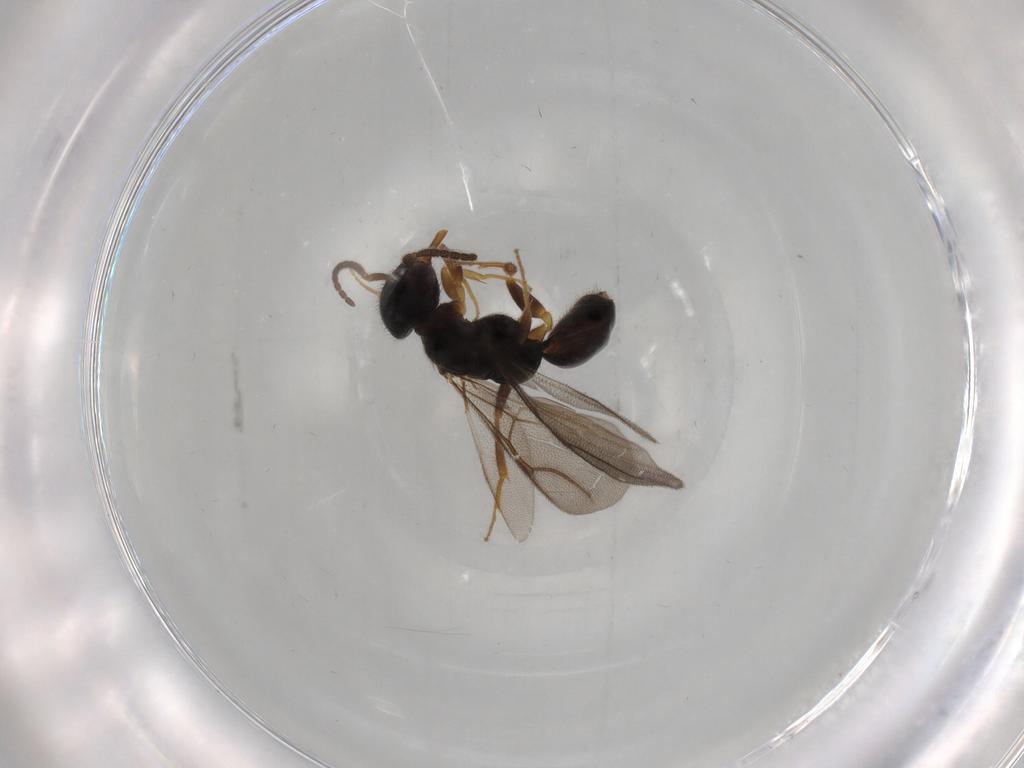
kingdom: Animalia
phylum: Arthropoda
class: Insecta
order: Hymenoptera
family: Bethylidae
